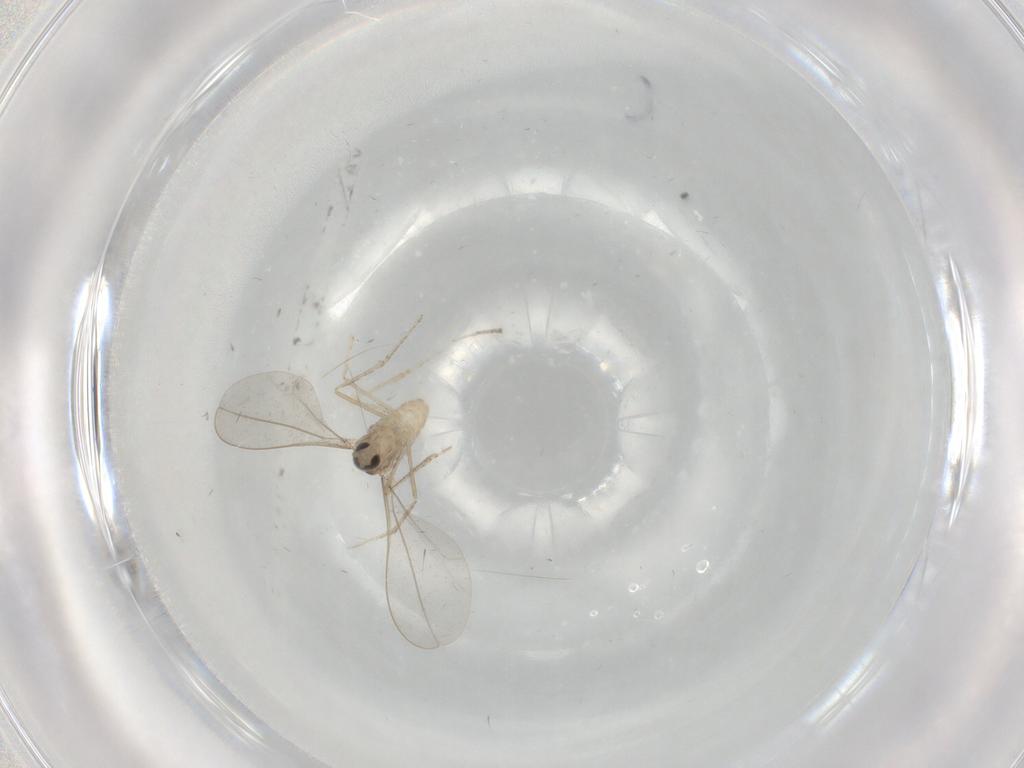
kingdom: Animalia
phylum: Arthropoda
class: Insecta
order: Diptera
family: Cecidomyiidae
